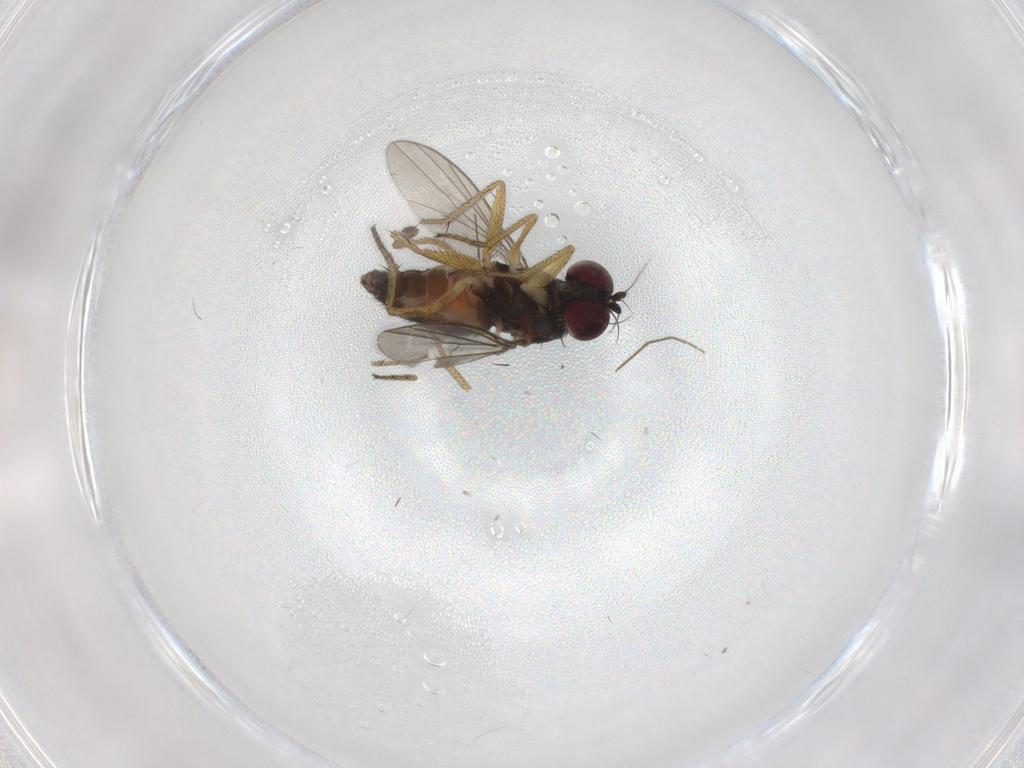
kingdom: Animalia
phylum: Arthropoda
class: Insecta
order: Diptera
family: Chironomidae
